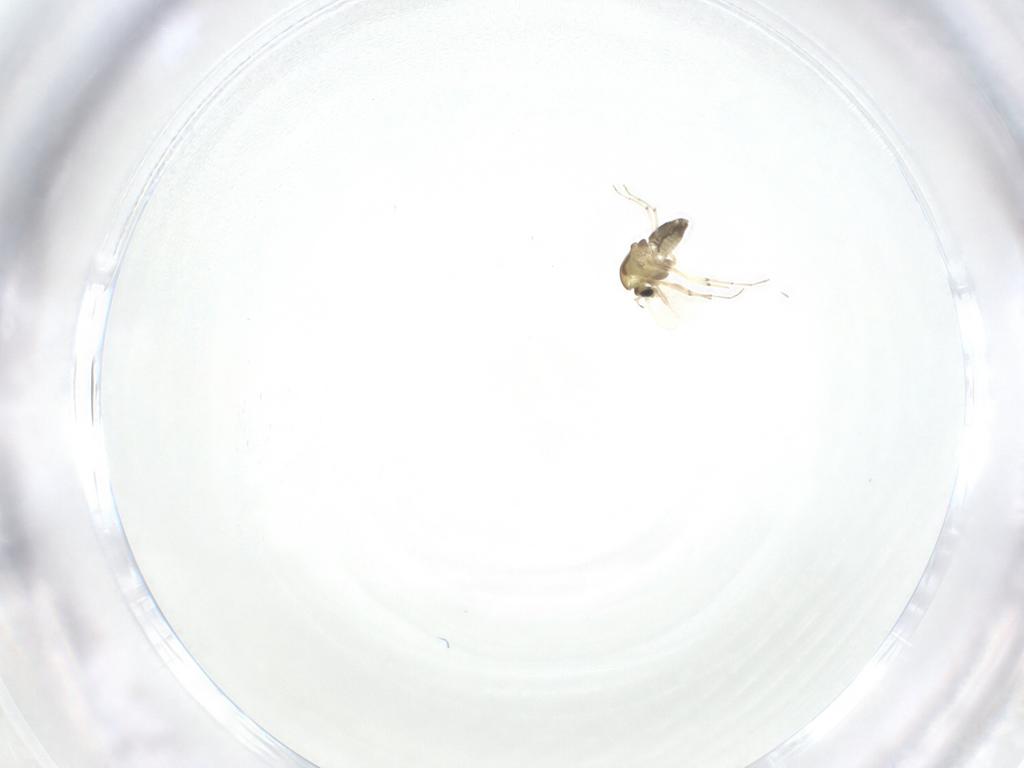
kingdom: Animalia
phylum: Arthropoda
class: Insecta
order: Diptera
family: Chironomidae
